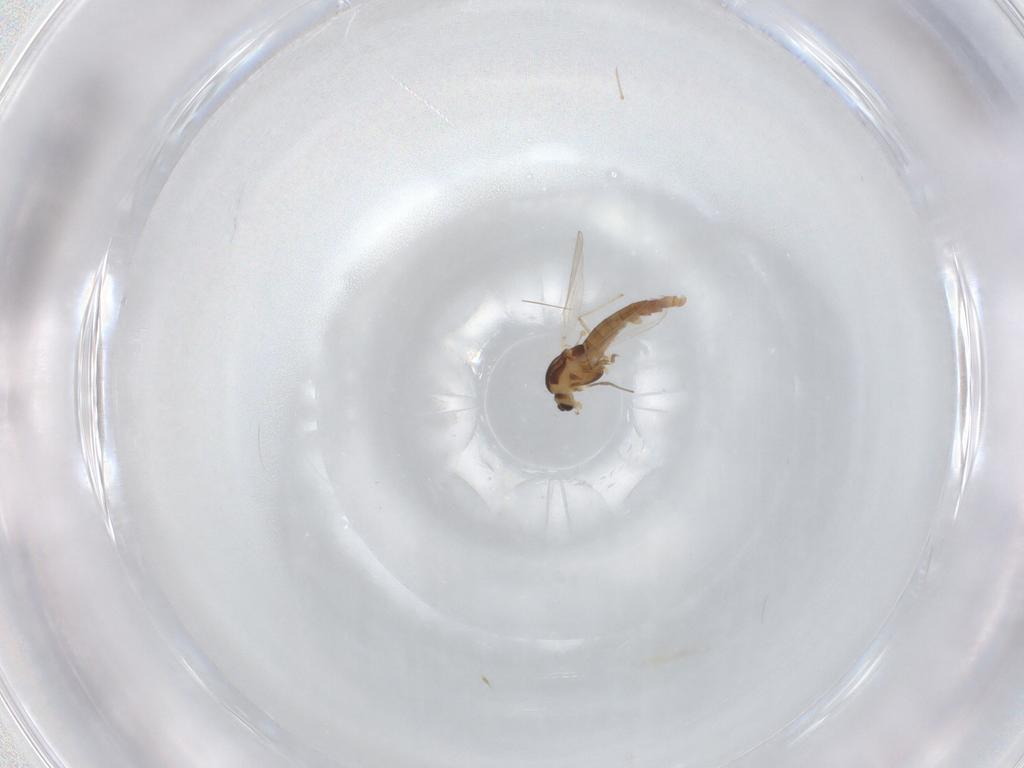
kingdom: Animalia
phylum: Arthropoda
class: Insecta
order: Diptera
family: Chironomidae
